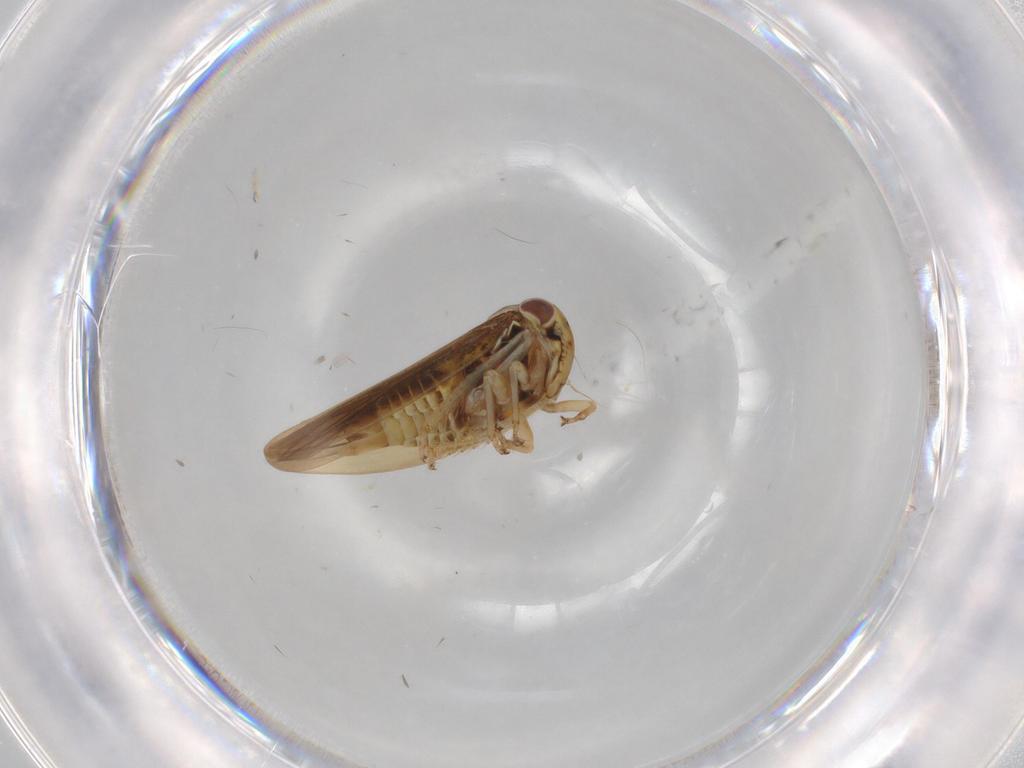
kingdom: Animalia
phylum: Arthropoda
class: Insecta
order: Hemiptera
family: Cicadellidae
